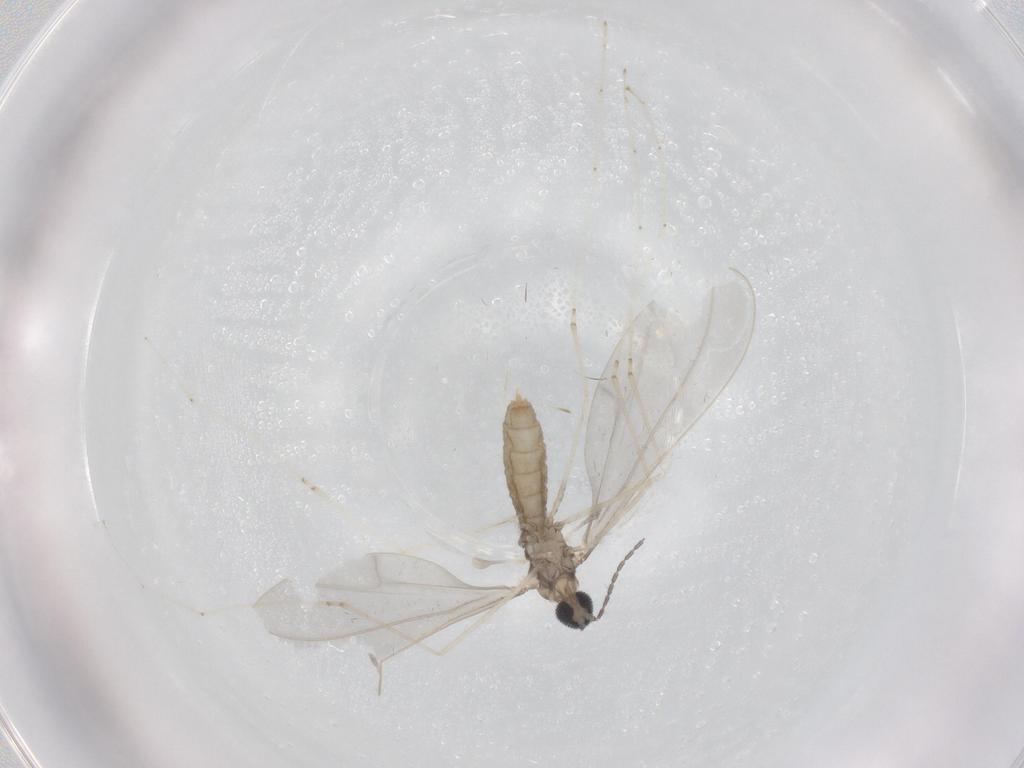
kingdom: Animalia
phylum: Arthropoda
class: Insecta
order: Diptera
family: Cecidomyiidae
